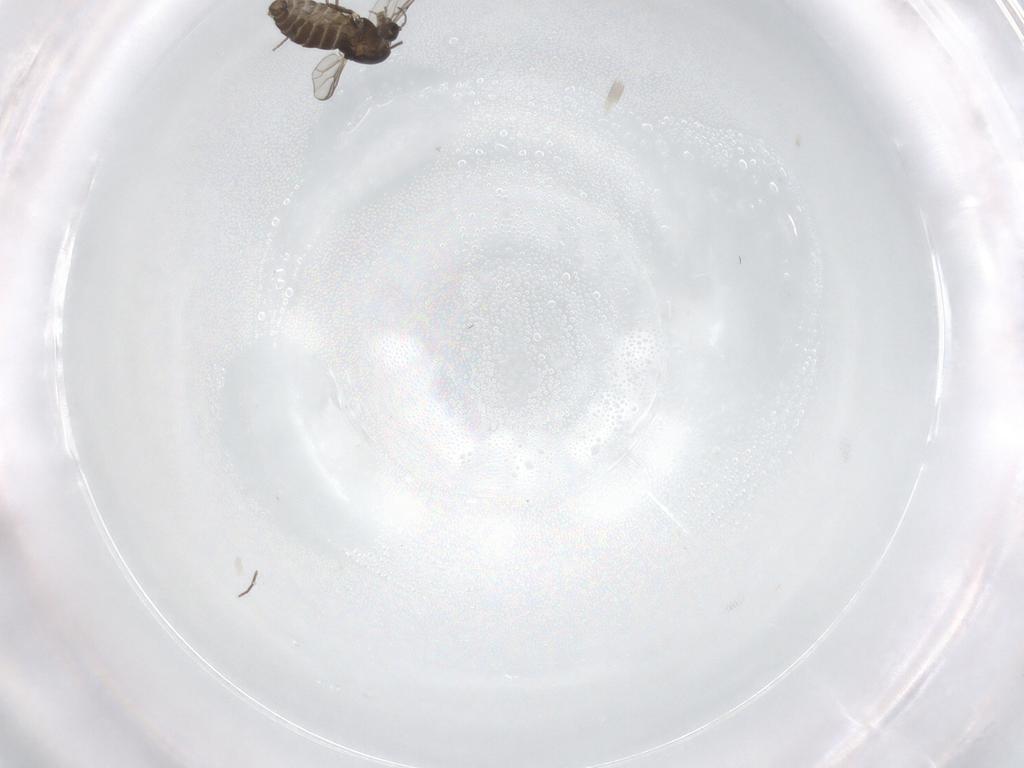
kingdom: Animalia
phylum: Arthropoda
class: Insecta
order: Diptera
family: Chironomidae
